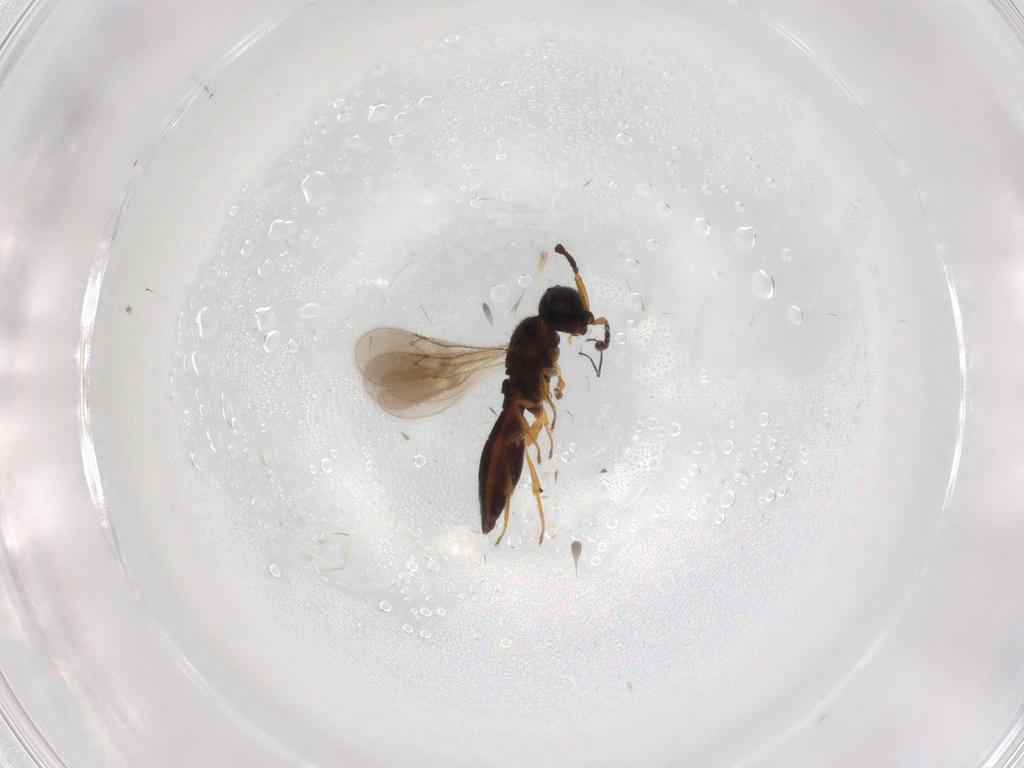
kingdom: Animalia
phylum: Arthropoda
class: Insecta
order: Hymenoptera
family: Scelionidae
